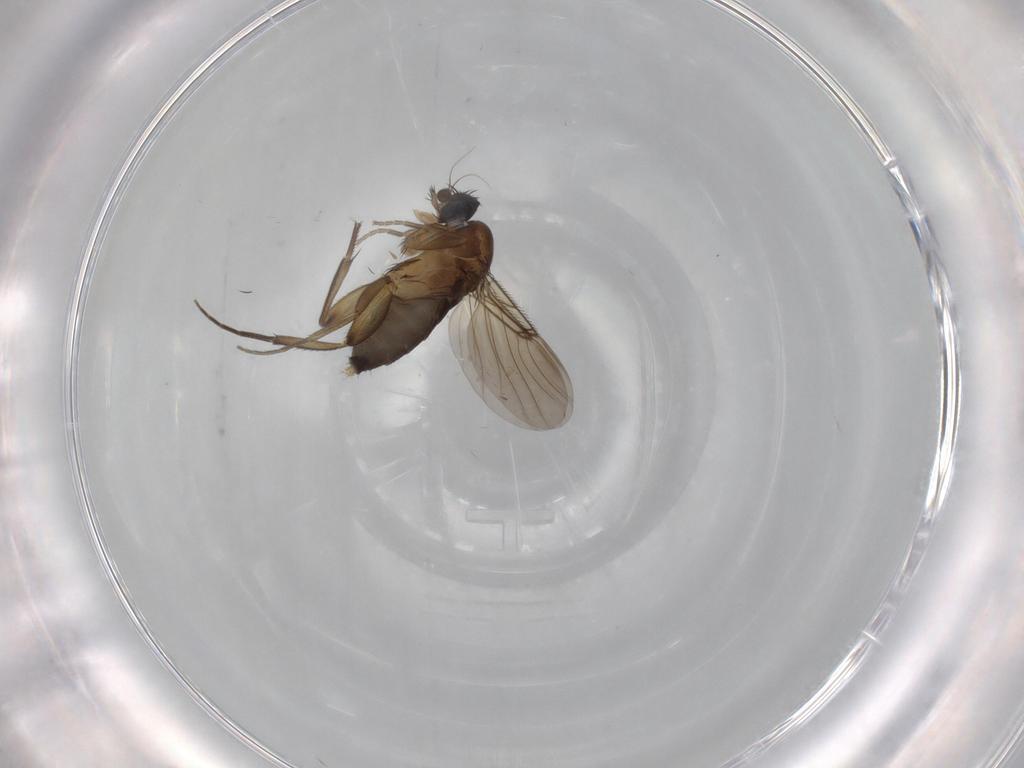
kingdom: Animalia
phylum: Arthropoda
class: Insecta
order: Diptera
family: Phoridae
